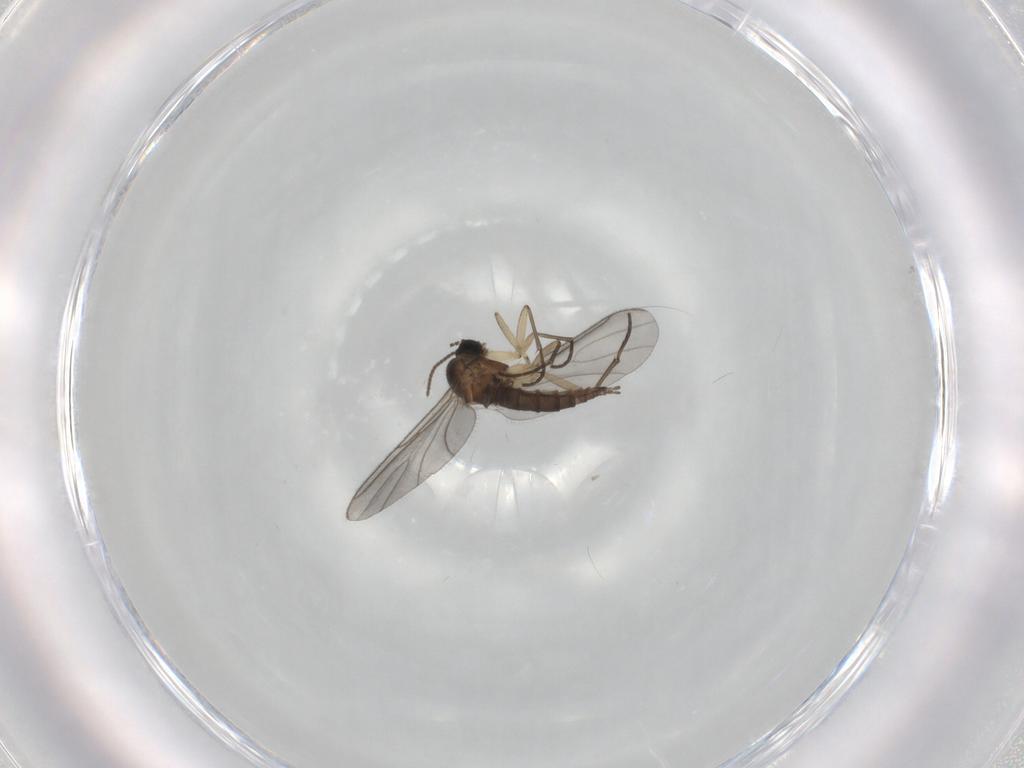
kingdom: Animalia
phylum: Arthropoda
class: Insecta
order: Diptera
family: Sciaridae
